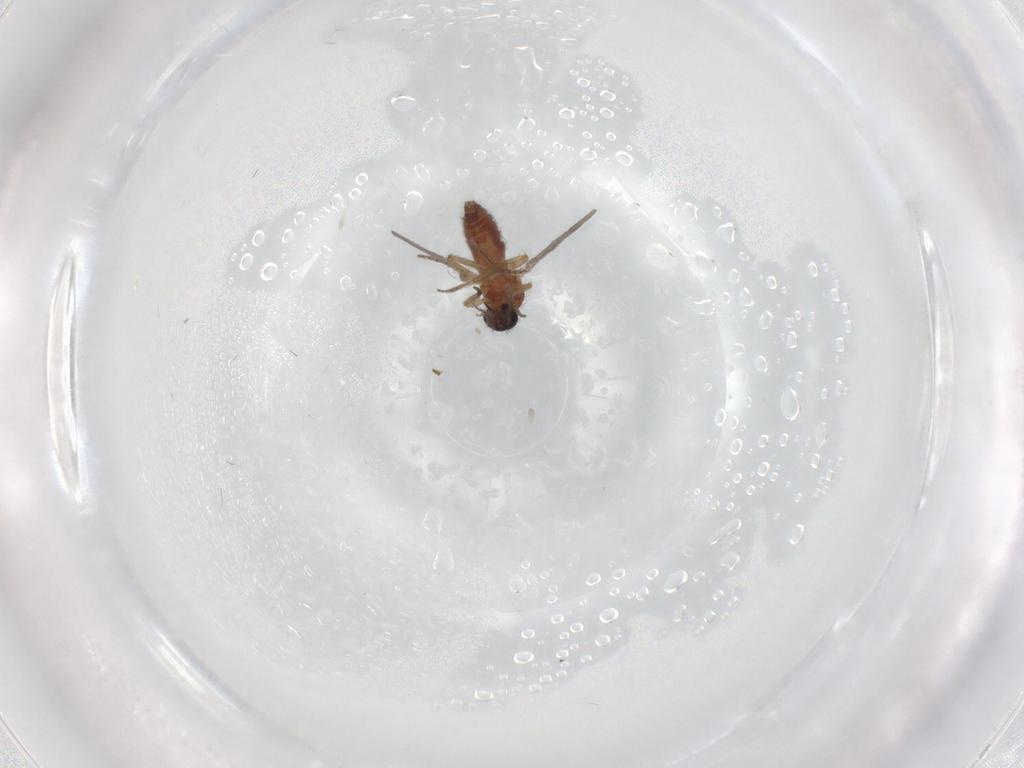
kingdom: Animalia
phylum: Arthropoda
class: Insecta
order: Diptera
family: Ceratopogonidae
